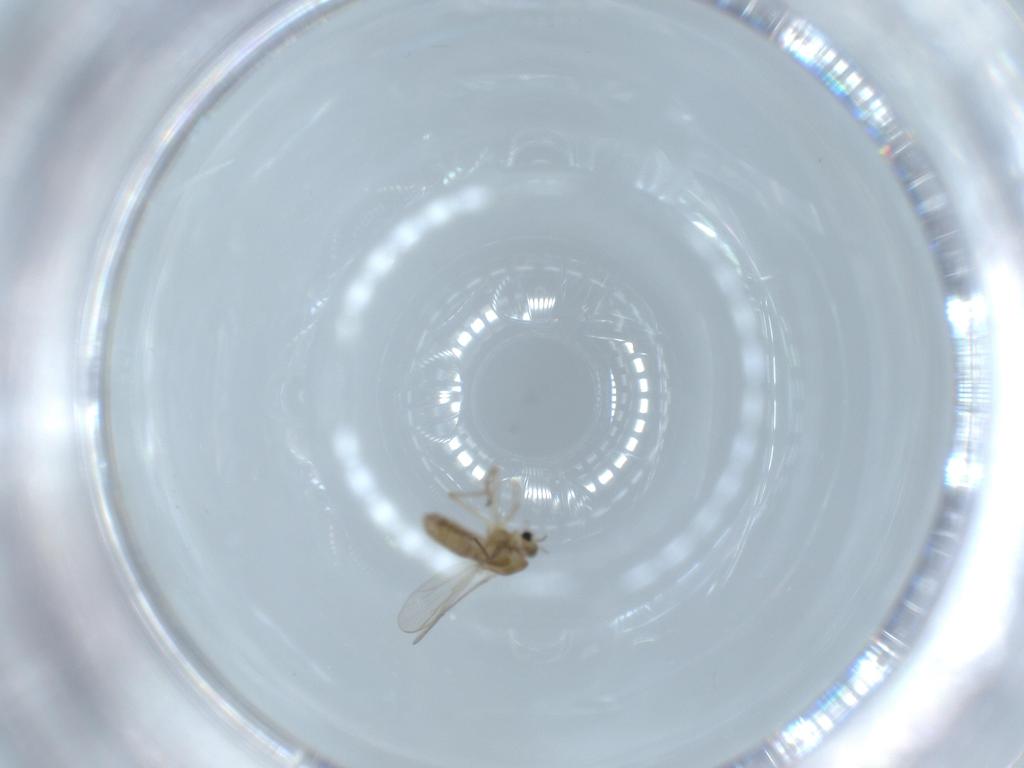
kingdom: Animalia
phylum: Arthropoda
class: Insecta
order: Diptera
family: Chironomidae
